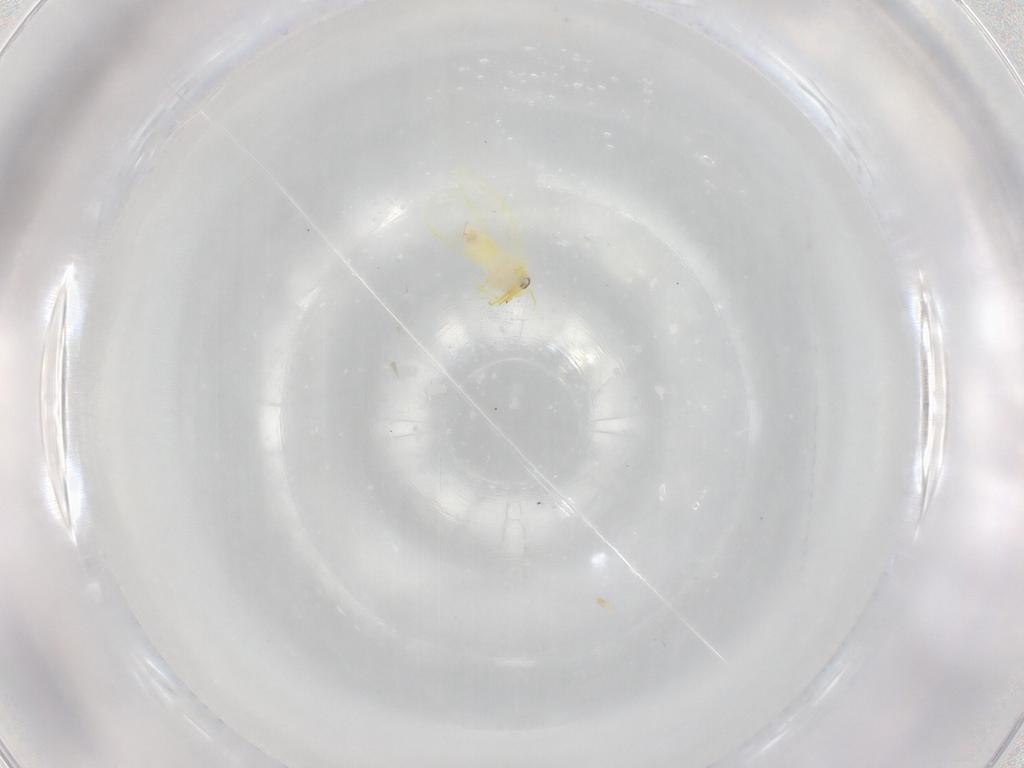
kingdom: Animalia
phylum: Arthropoda
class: Insecta
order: Hemiptera
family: Aleyrodidae
